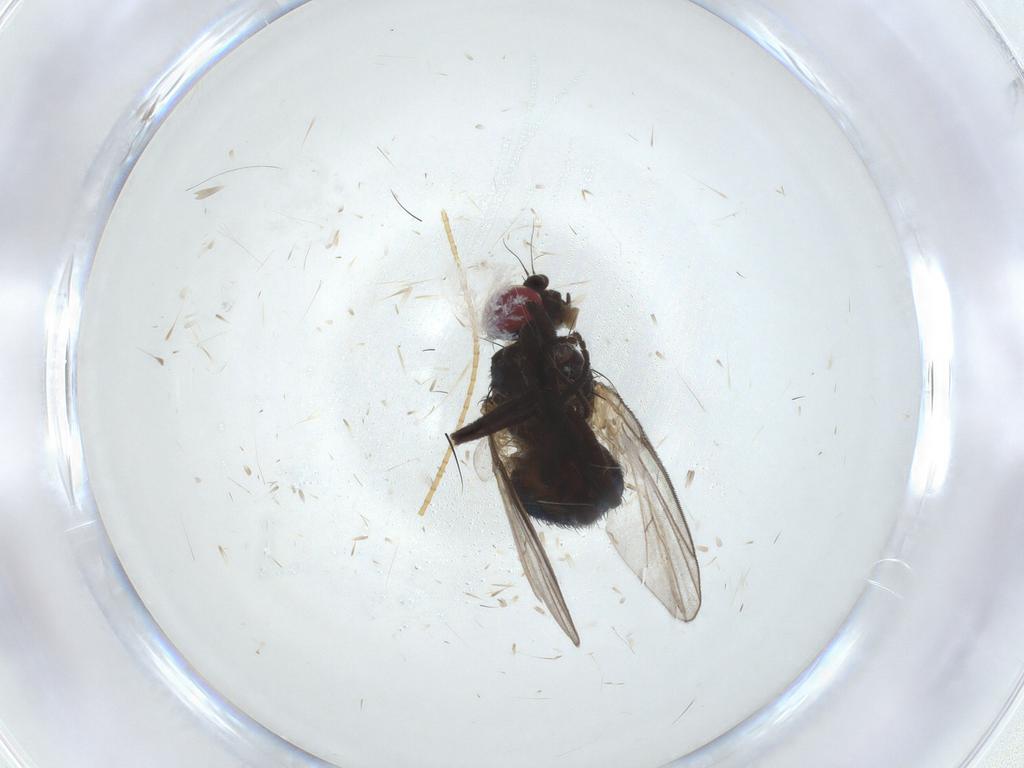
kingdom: Animalia
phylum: Arthropoda
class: Insecta
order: Diptera
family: Agromyzidae
